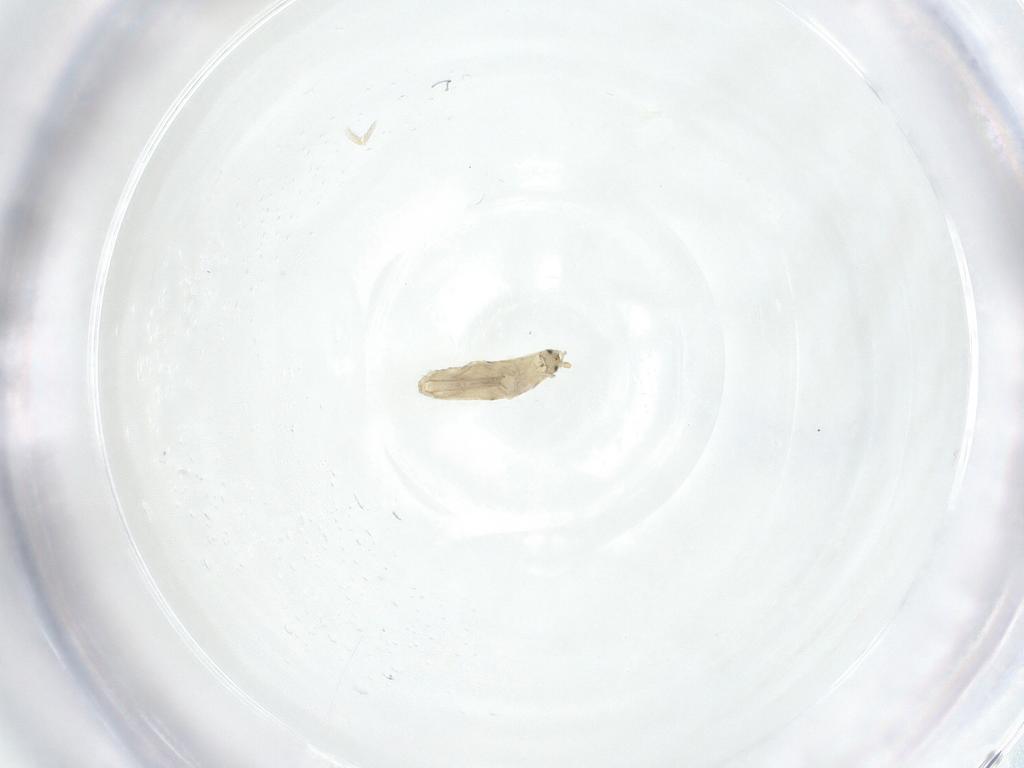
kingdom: Animalia
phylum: Arthropoda
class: Collembola
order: Entomobryomorpha
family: Entomobryidae
